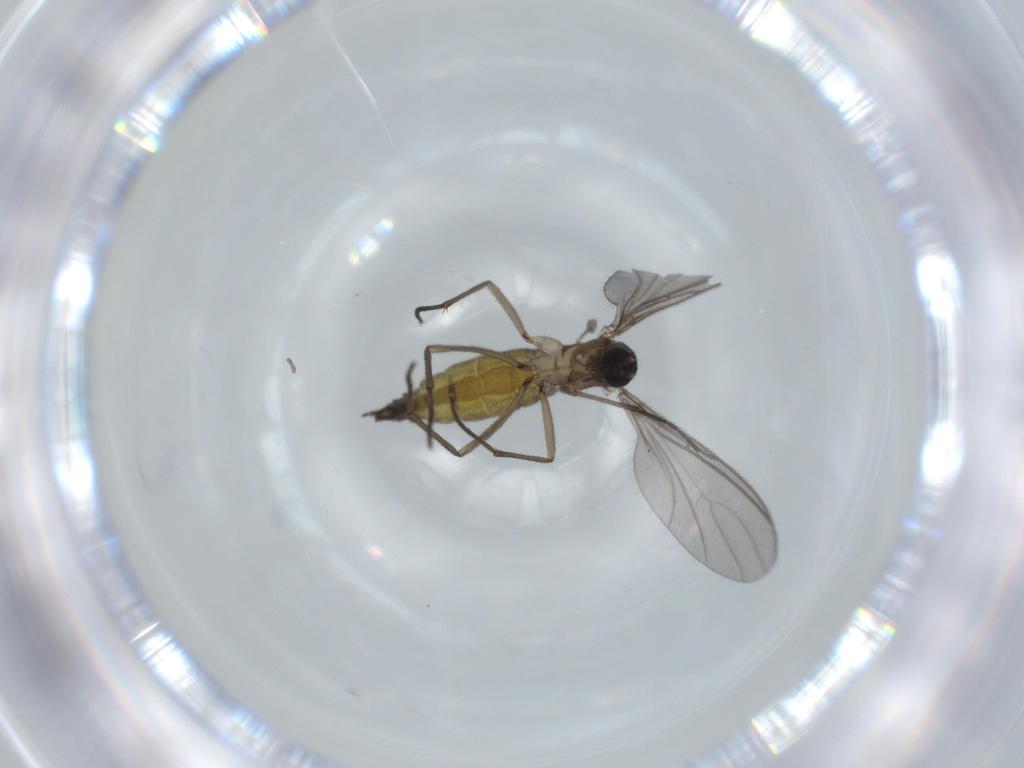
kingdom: Animalia
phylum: Arthropoda
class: Insecta
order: Diptera
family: Sciaridae
